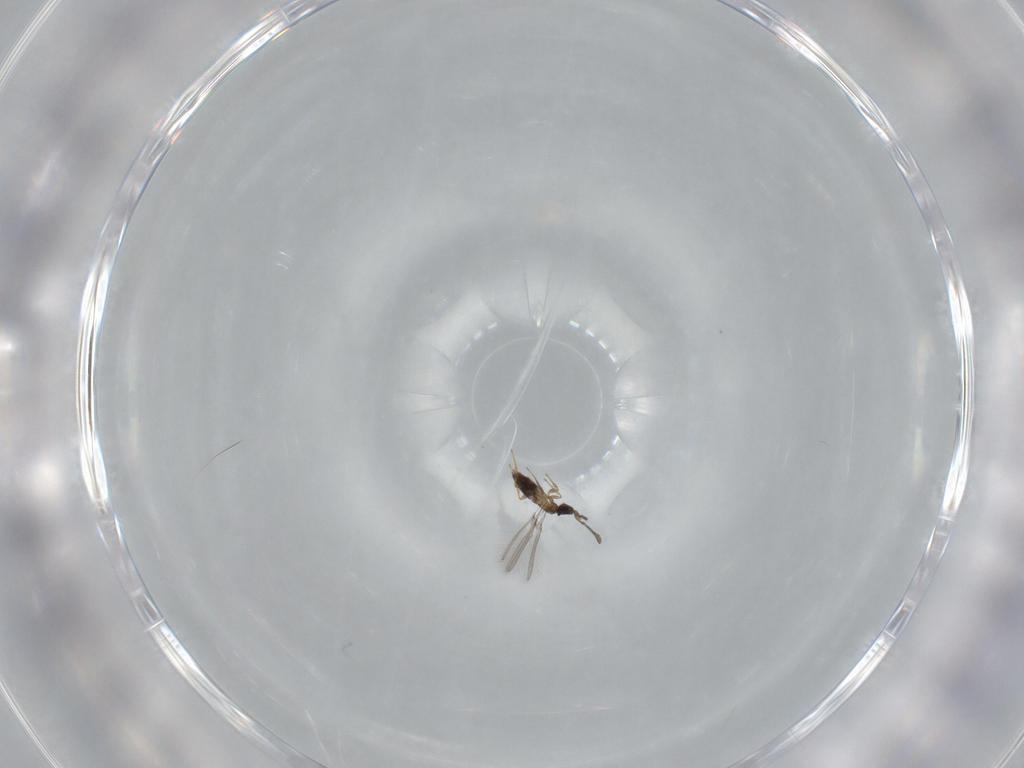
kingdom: Animalia
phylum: Arthropoda
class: Insecta
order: Hymenoptera
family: Mymaridae
